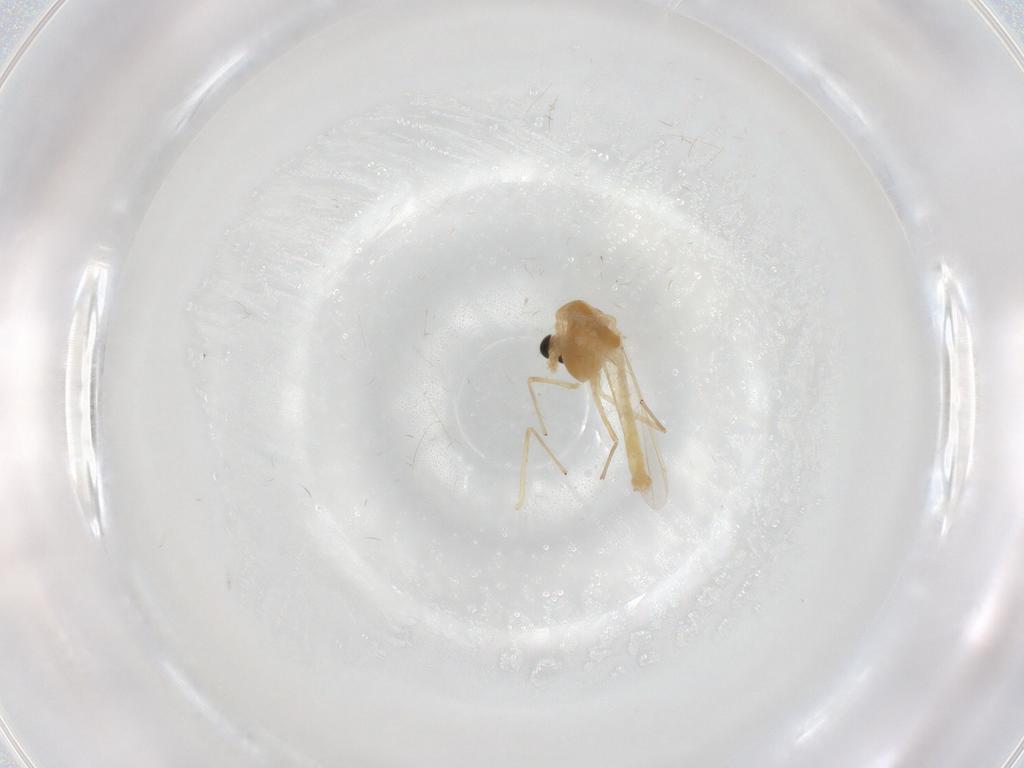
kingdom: Animalia
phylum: Arthropoda
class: Insecta
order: Diptera
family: Chironomidae
